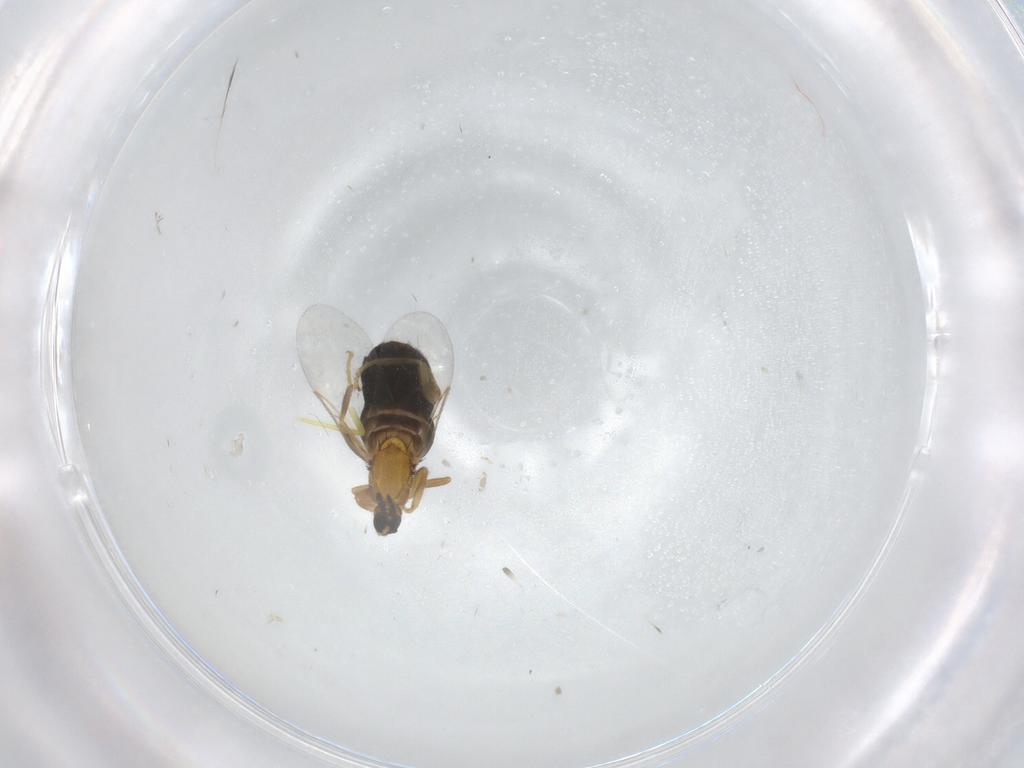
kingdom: Animalia
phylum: Arthropoda
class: Insecta
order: Diptera
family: Scatopsidae
